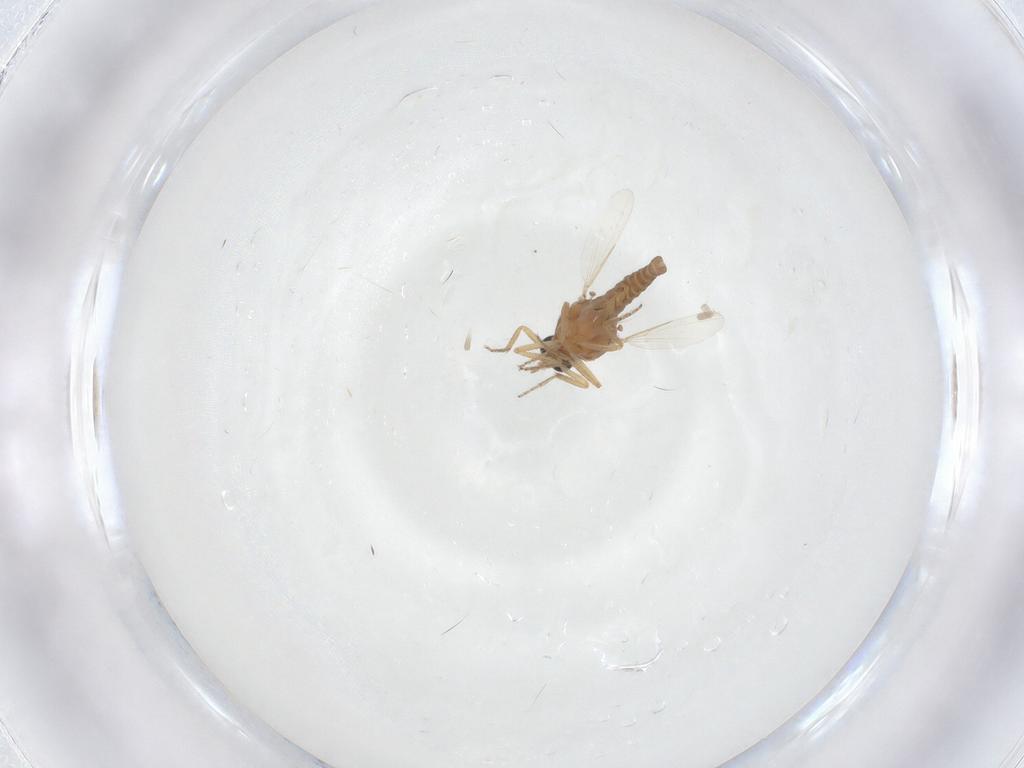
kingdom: Animalia
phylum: Arthropoda
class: Insecta
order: Diptera
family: Ceratopogonidae
